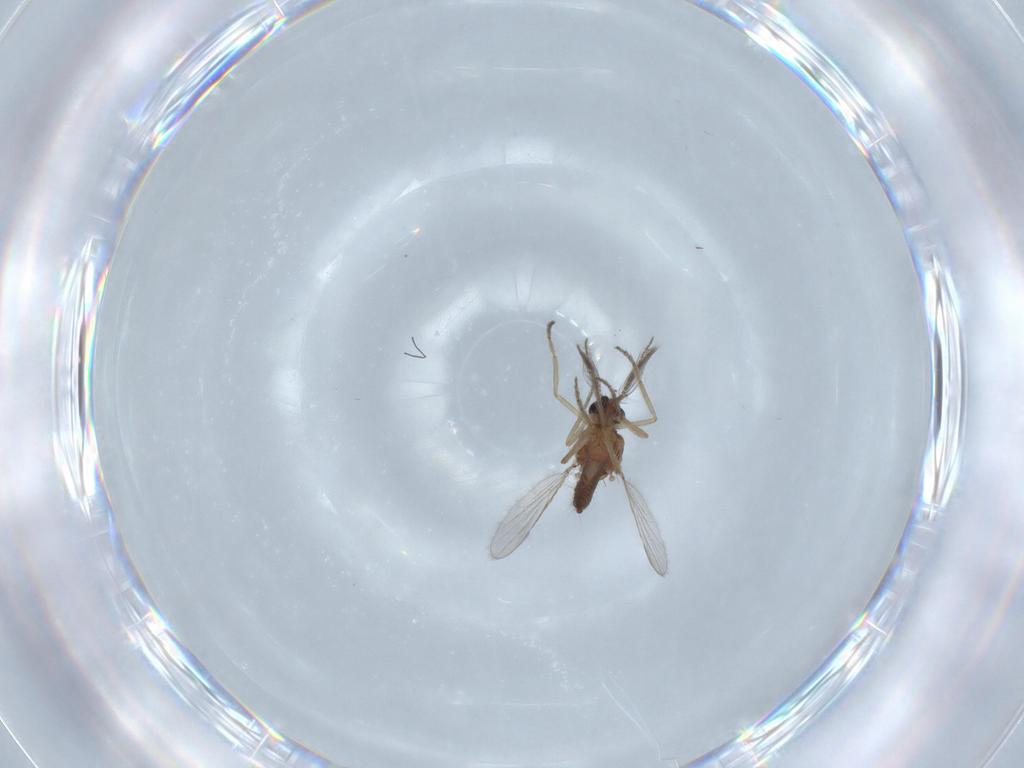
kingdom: Animalia
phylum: Arthropoda
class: Insecta
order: Diptera
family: Ceratopogonidae
